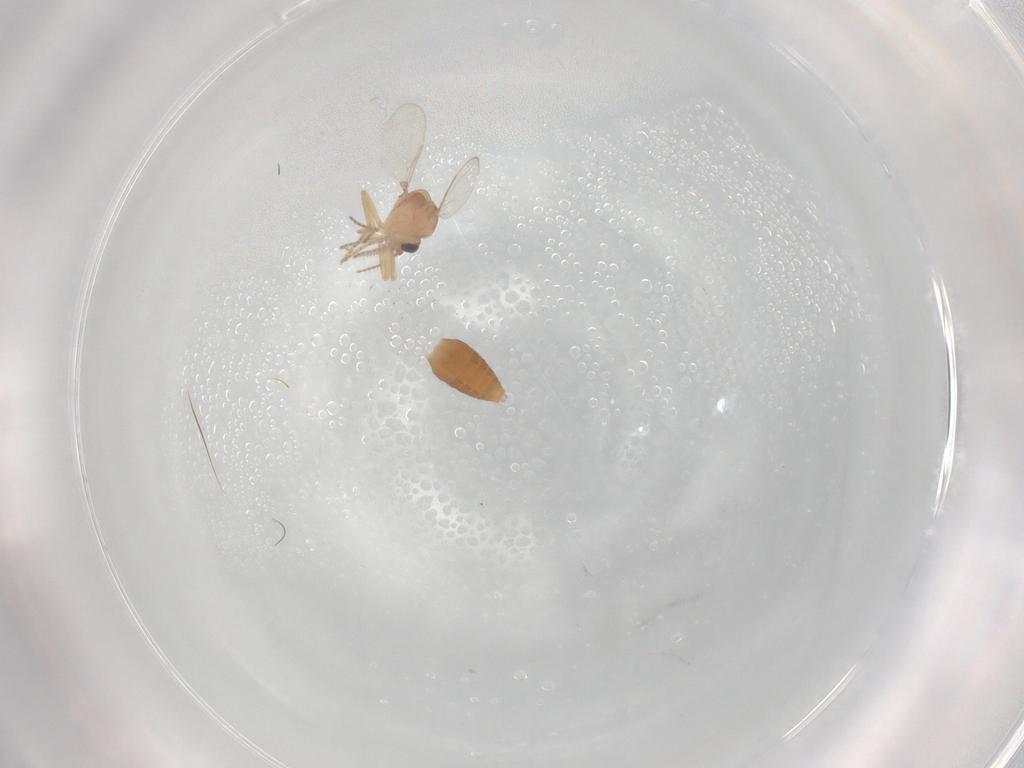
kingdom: Animalia
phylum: Arthropoda
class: Insecta
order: Diptera
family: Ceratopogonidae
